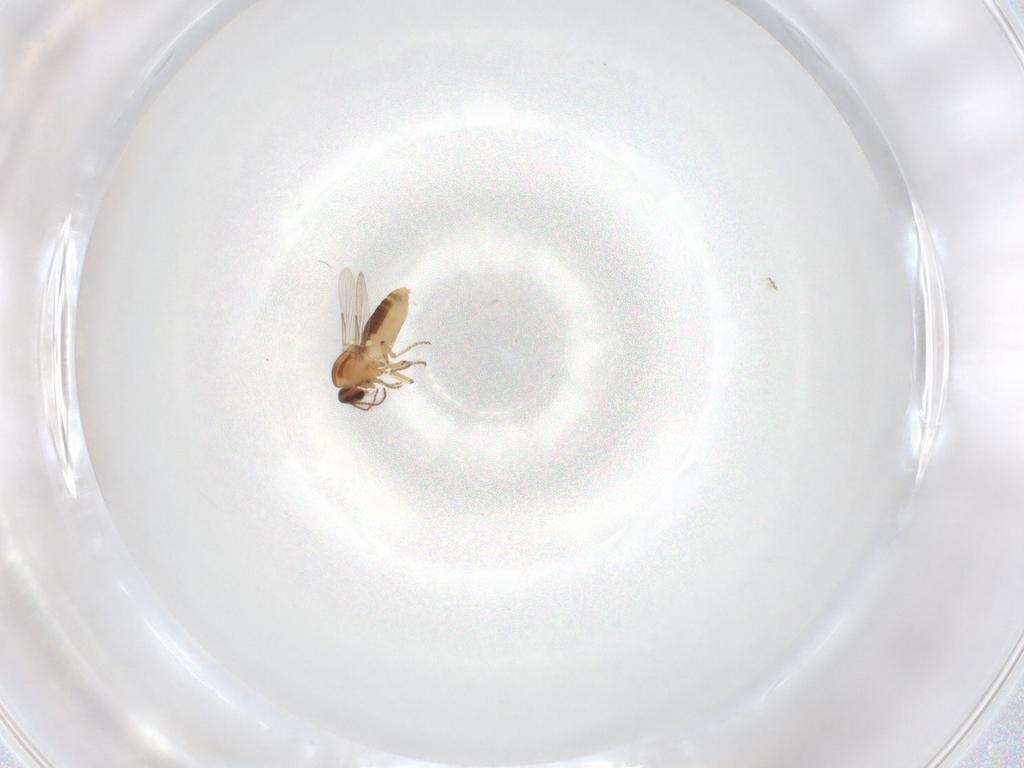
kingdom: Animalia
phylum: Arthropoda
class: Insecta
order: Diptera
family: Ceratopogonidae
